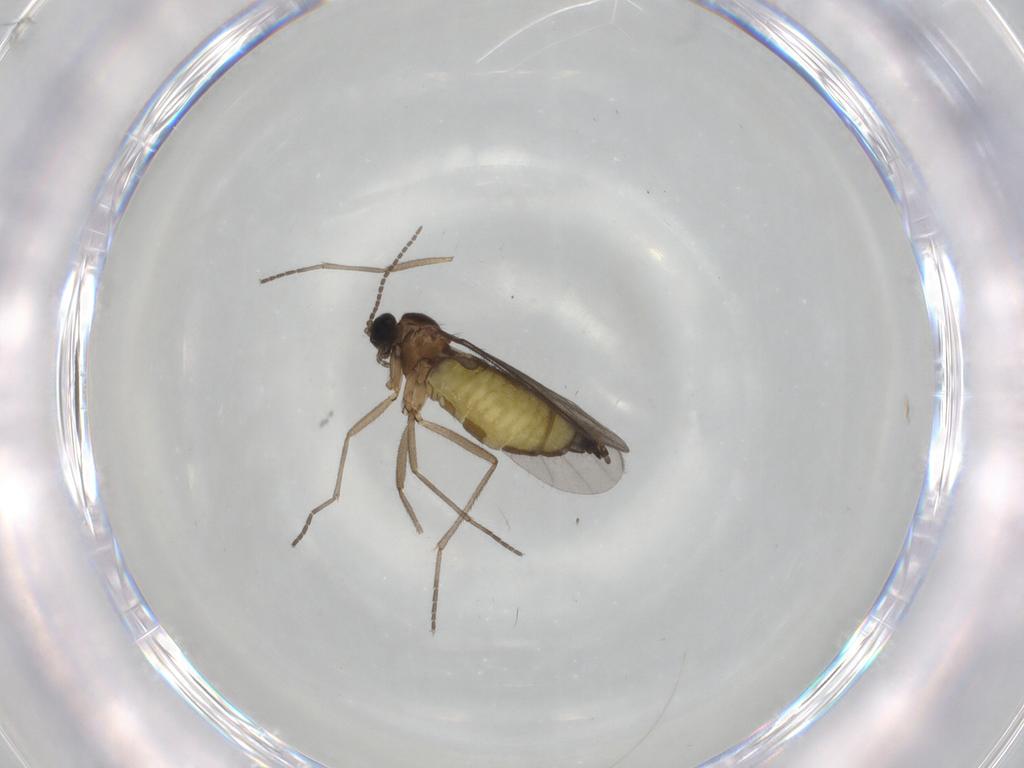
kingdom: Animalia
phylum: Arthropoda
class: Insecta
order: Diptera
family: Sciaridae
